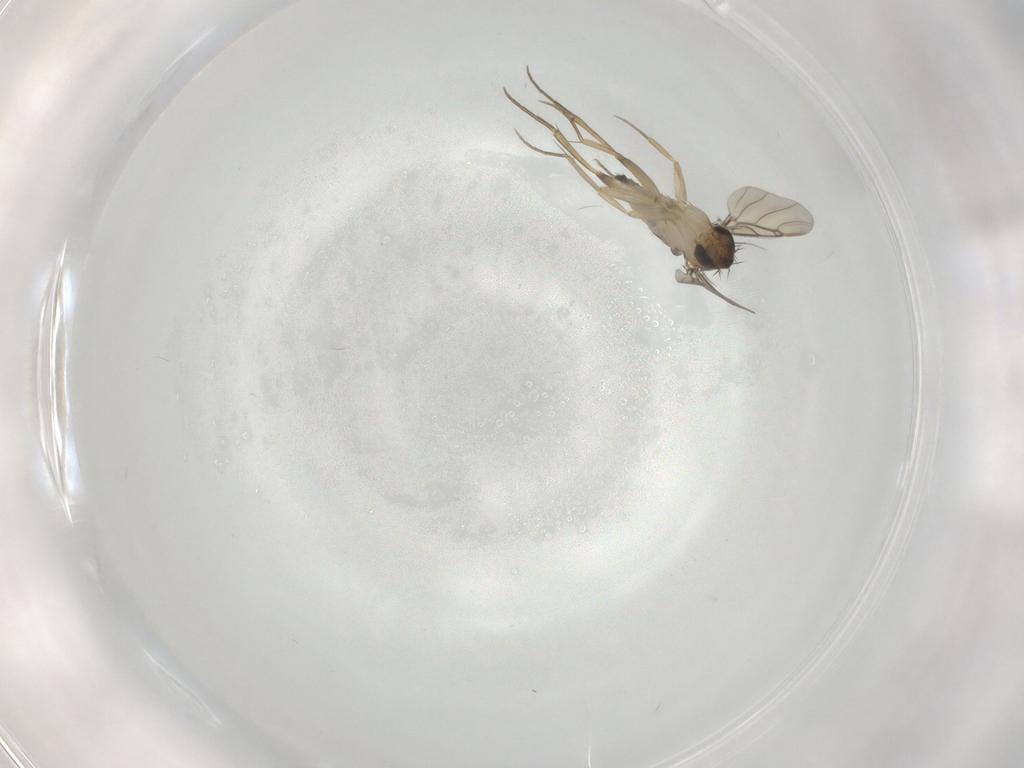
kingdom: Animalia
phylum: Arthropoda
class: Insecta
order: Diptera
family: Phoridae
